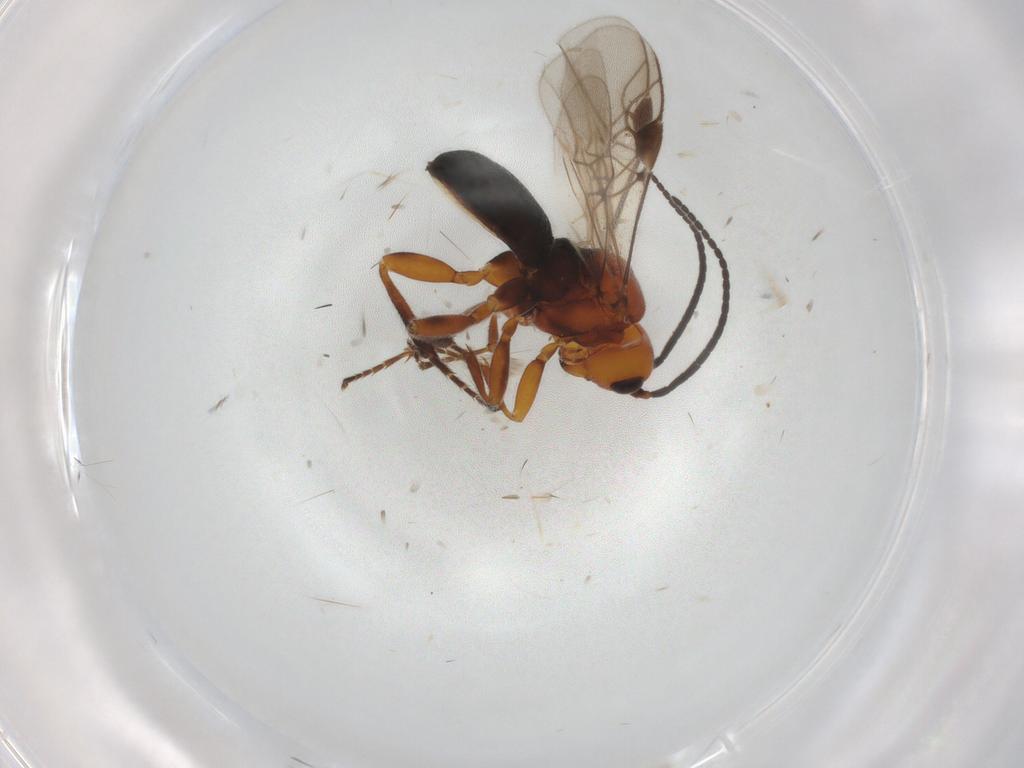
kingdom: Animalia
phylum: Arthropoda
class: Insecta
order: Hymenoptera
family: Braconidae
